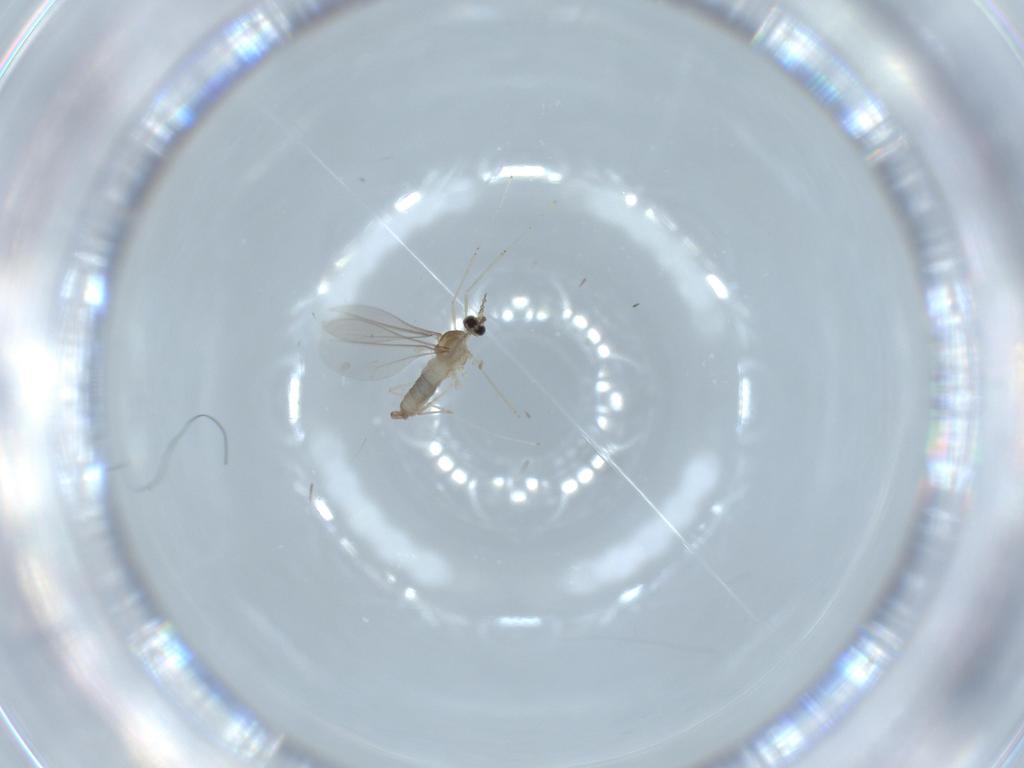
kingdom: Animalia
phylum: Arthropoda
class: Insecta
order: Diptera
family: Cecidomyiidae
